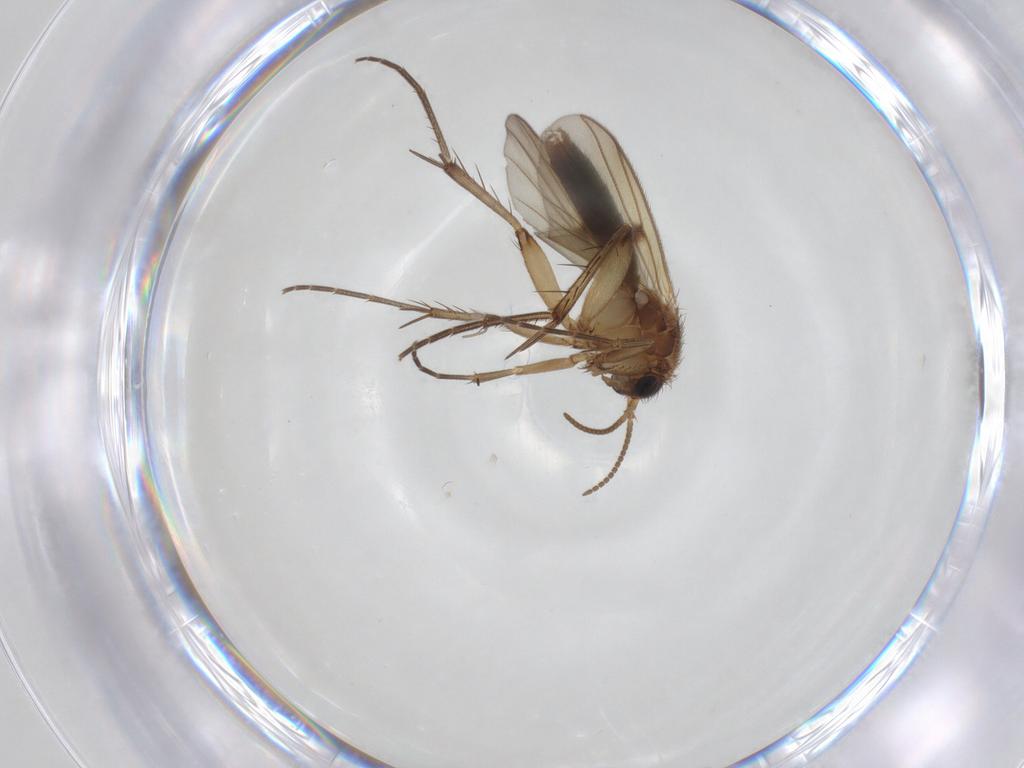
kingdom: Animalia
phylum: Arthropoda
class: Insecta
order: Diptera
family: Mycetophilidae
